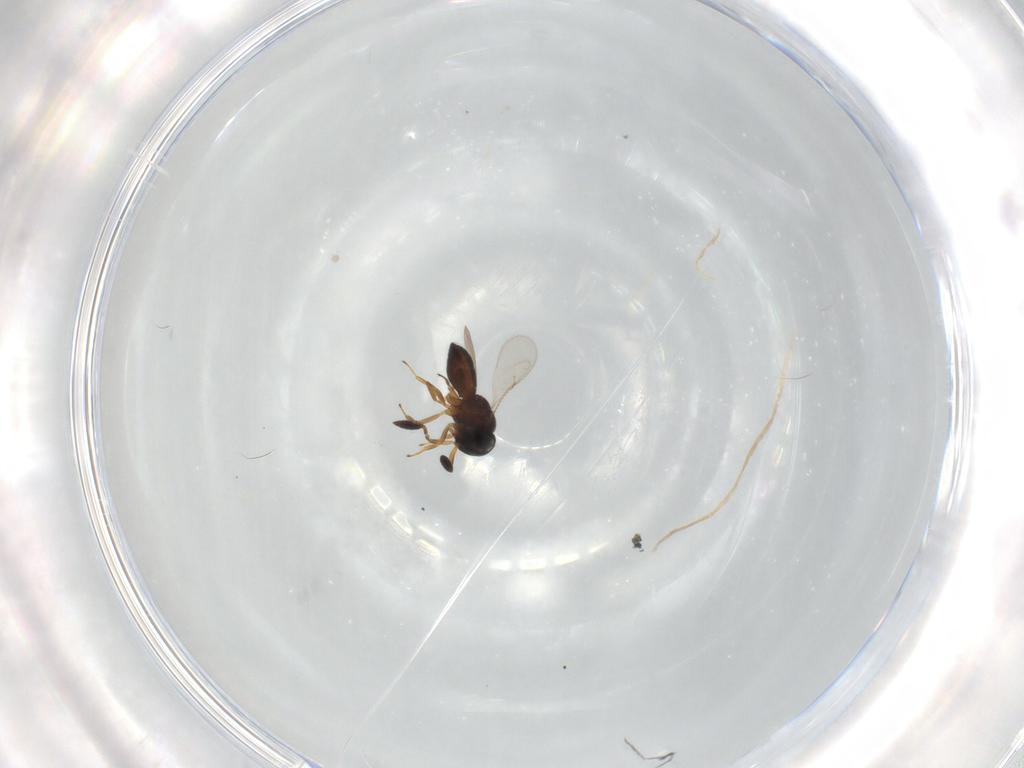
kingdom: Animalia
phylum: Arthropoda
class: Insecta
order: Hymenoptera
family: Scelionidae
